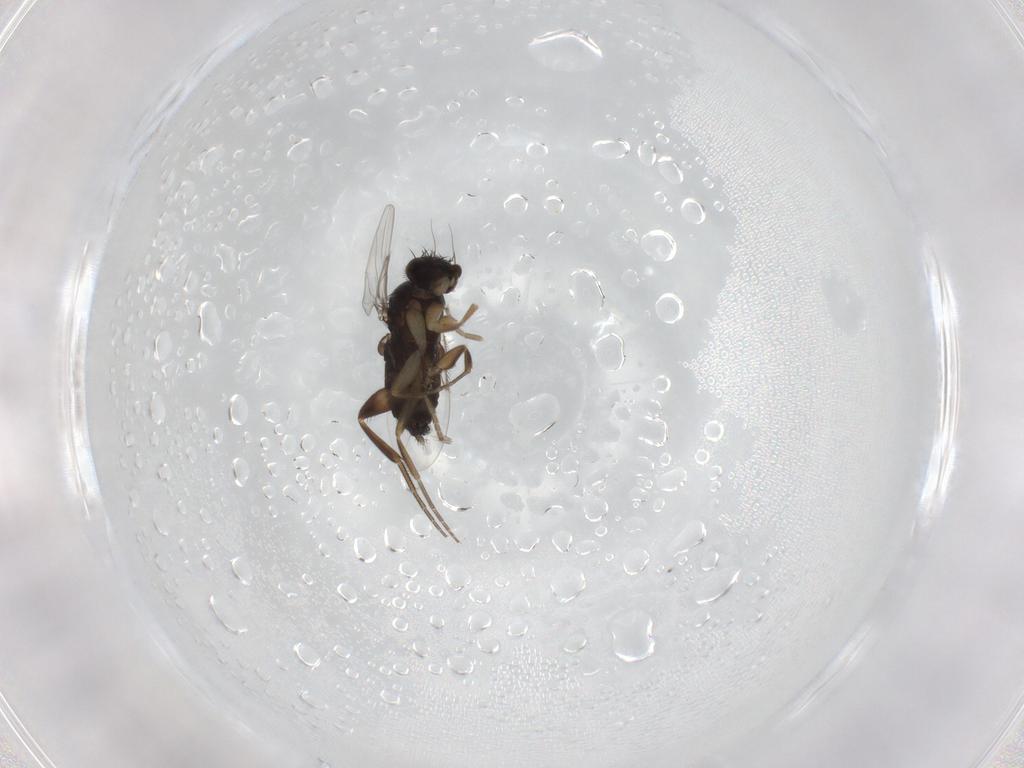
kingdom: Animalia
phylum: Arthropoda
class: Insecta
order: Diptera
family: Phoridae
